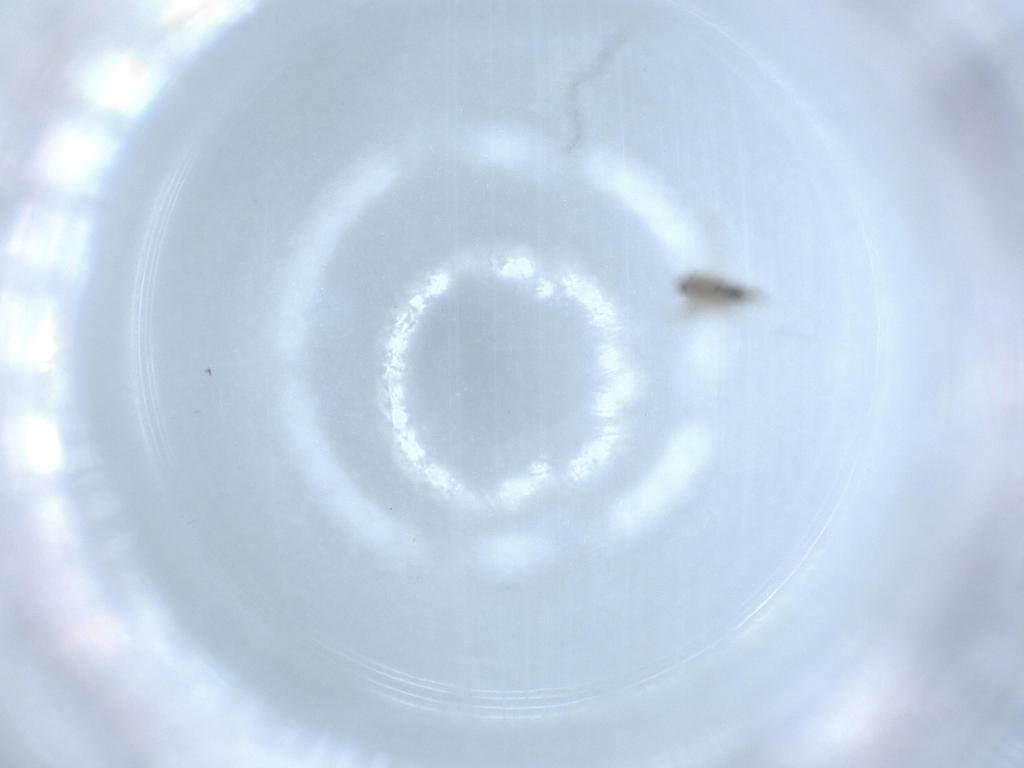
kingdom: Animalia
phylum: Arthropoda
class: Insecta
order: Diptera
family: Cecidomyiidae
